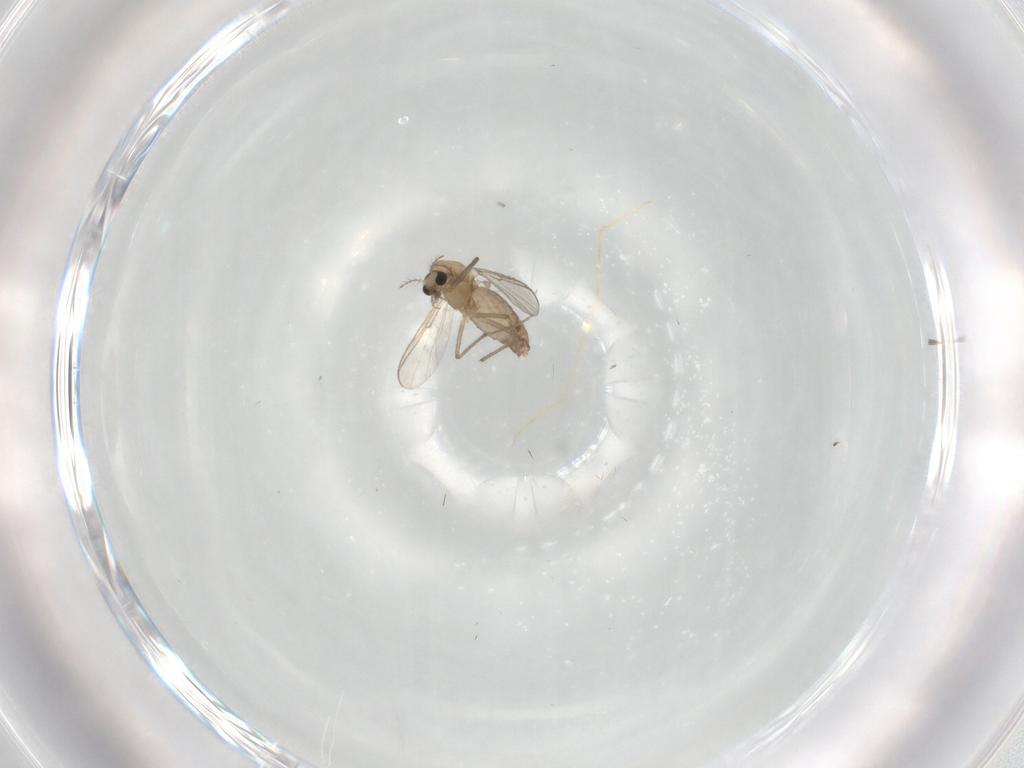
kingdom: Animalia
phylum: Arthropoda
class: Insecta
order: Diptera
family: Chironomidae
